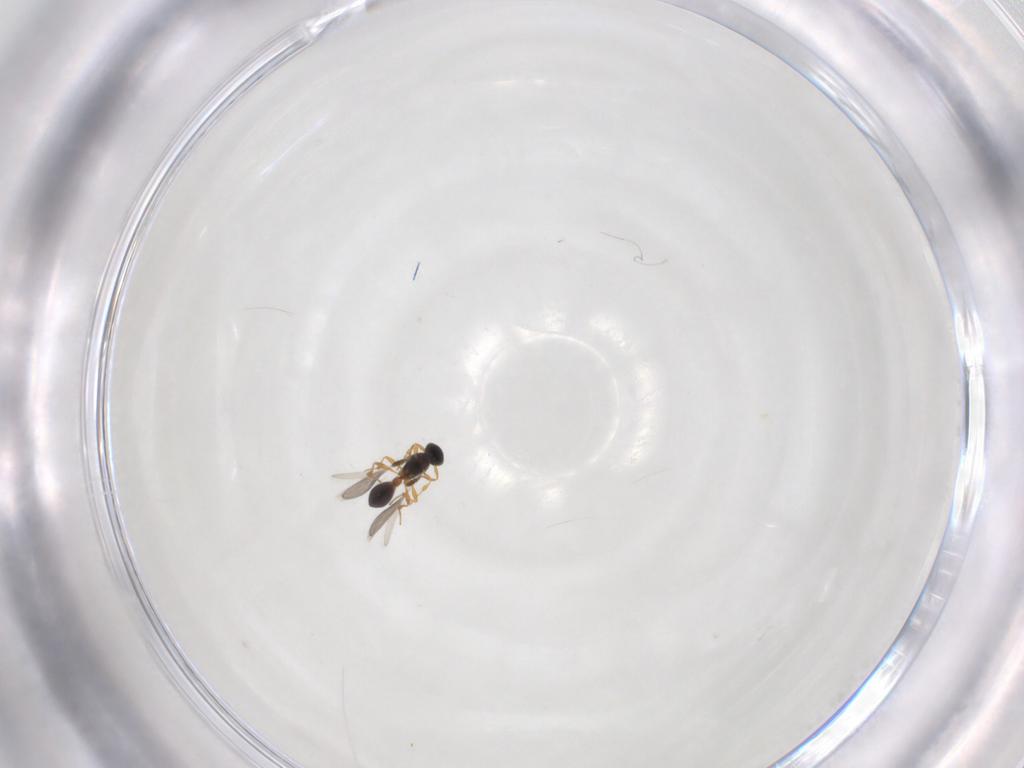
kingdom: Animalia
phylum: Arthropoda
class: Insecta
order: Hymenoptera
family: Platygastridae
